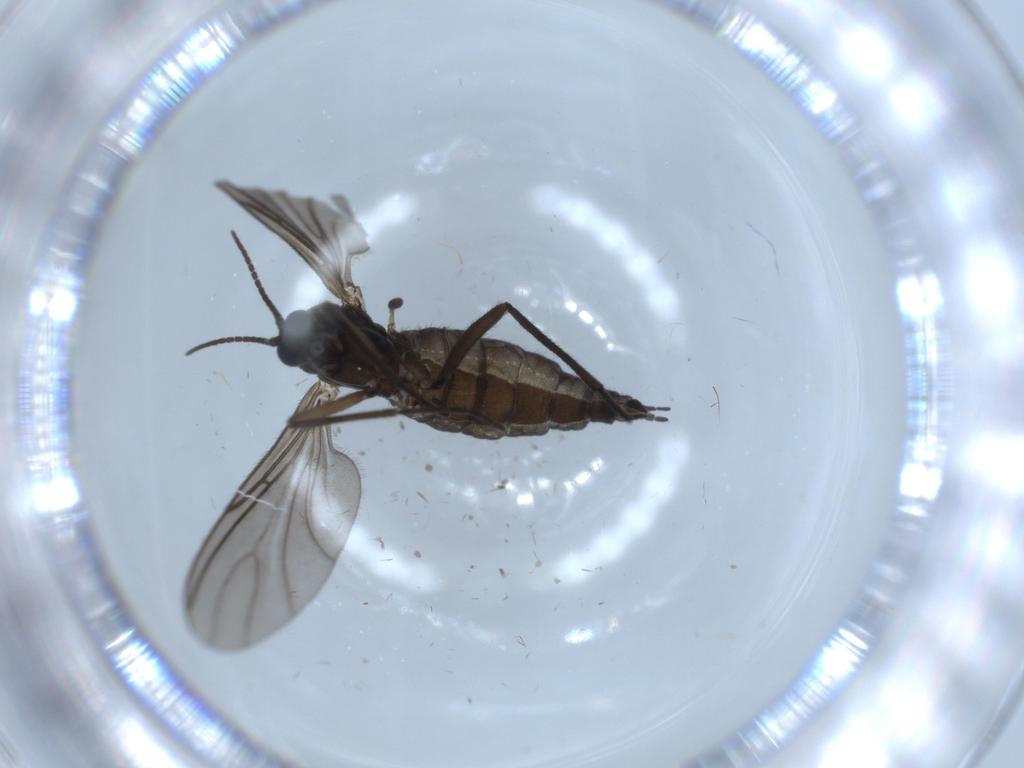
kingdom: Animalia
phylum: Arthropoda
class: Insecta
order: Diptera
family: Sciaridae
